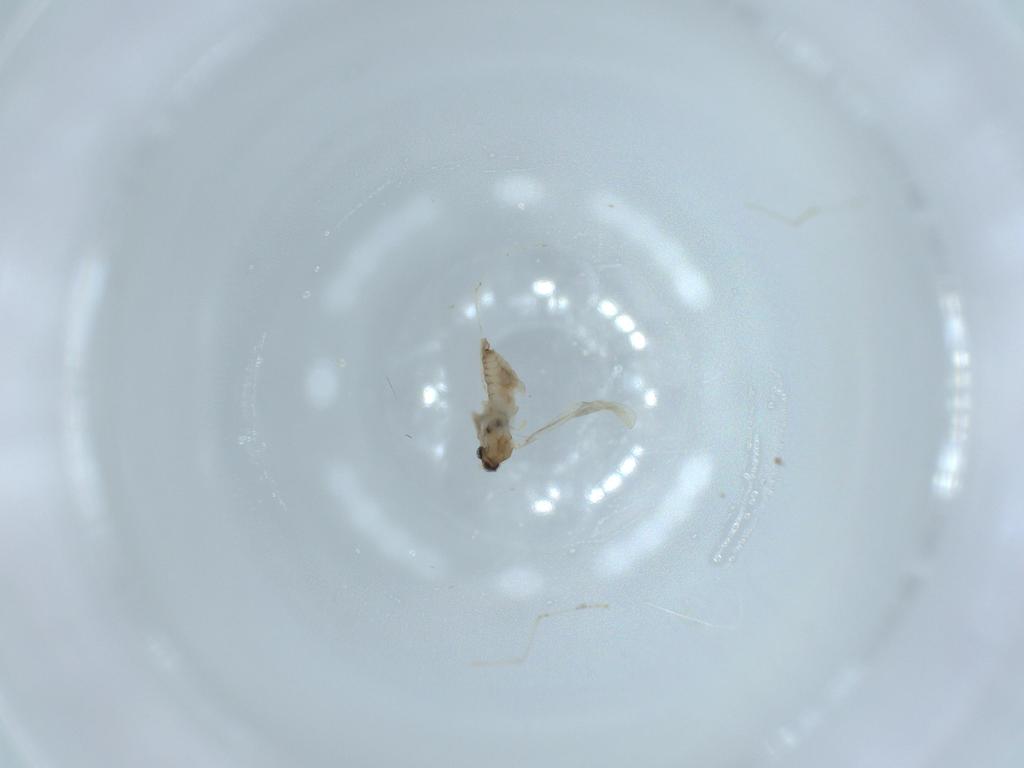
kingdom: Animalia
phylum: Arthropoda
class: Insecta
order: Diptera
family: Cecidomyiidae
